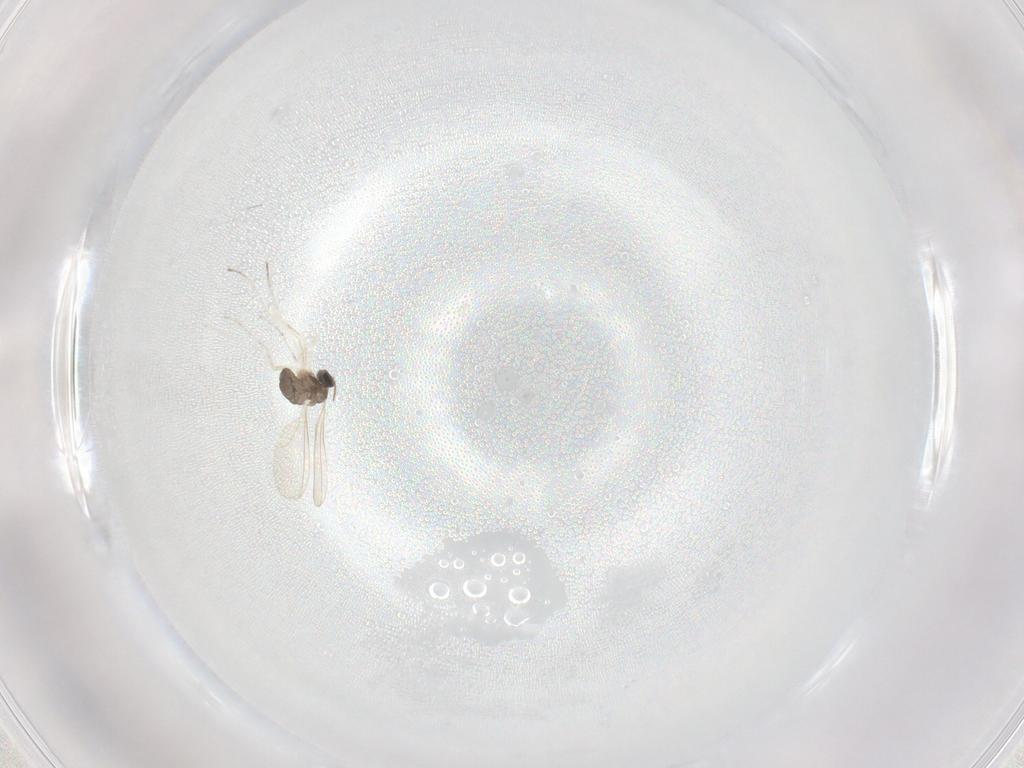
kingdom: Animalia
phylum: Arthropoda
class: Insecta
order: Diptera
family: Cecidomyiidae
